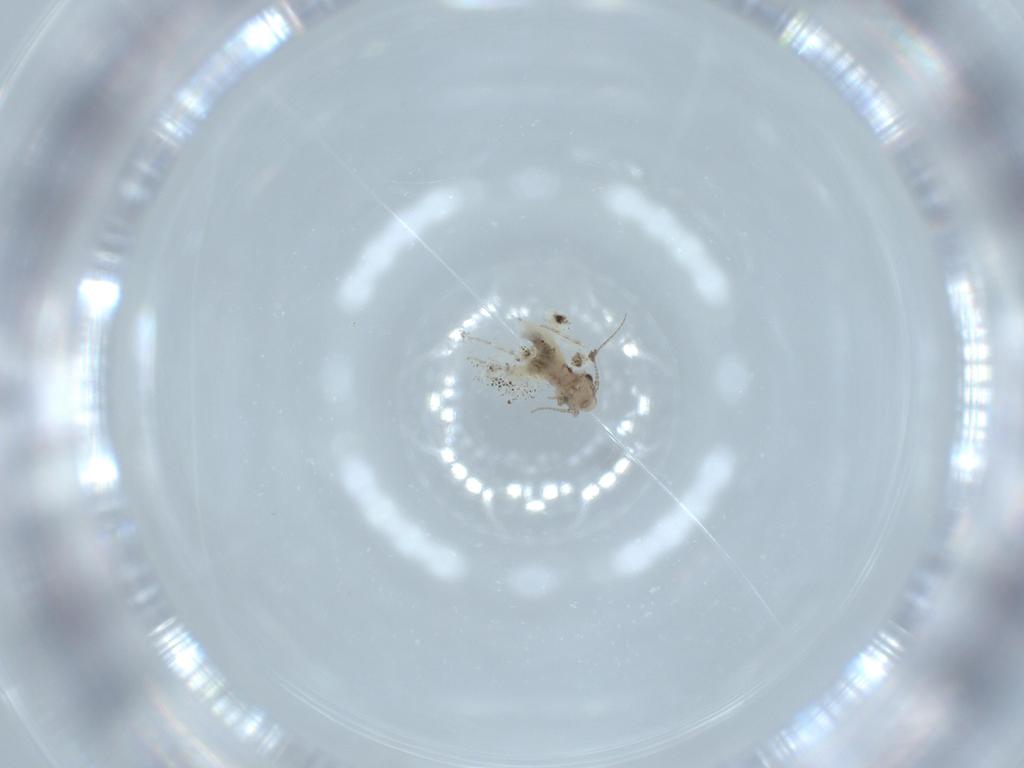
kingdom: Animalia
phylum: Arthropoda
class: Insecta
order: Psocodea
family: Lepidopsocidae
